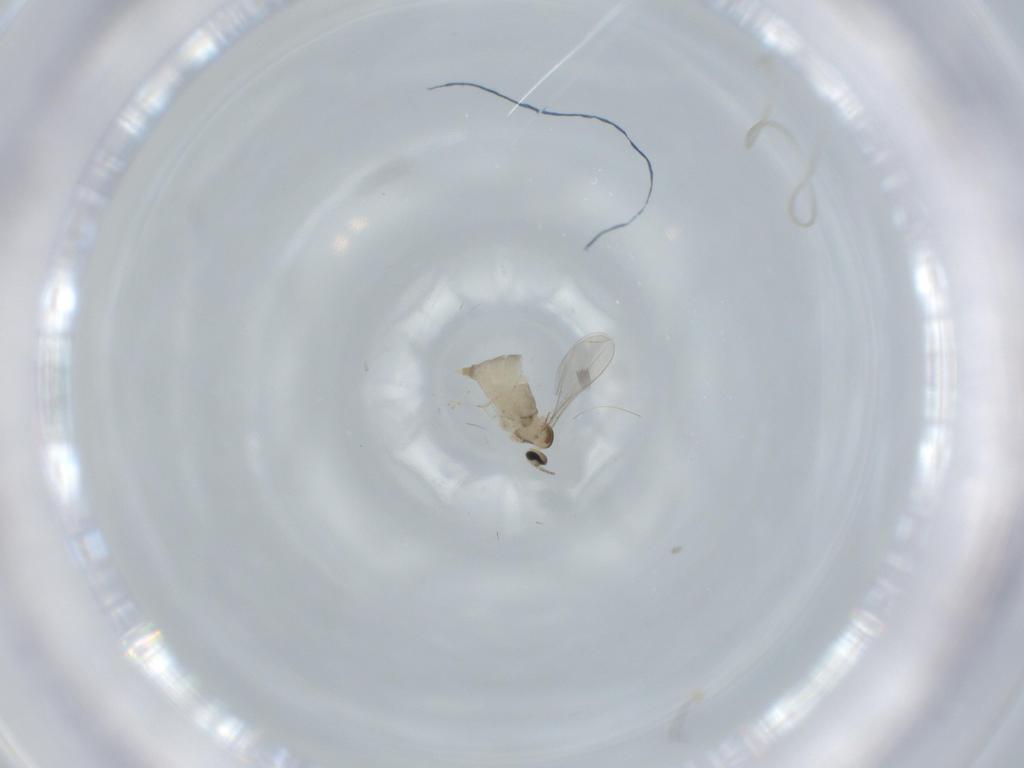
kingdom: Animalia
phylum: Arthropoda
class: Insecta
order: Diptera
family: Cecidomyiidae
